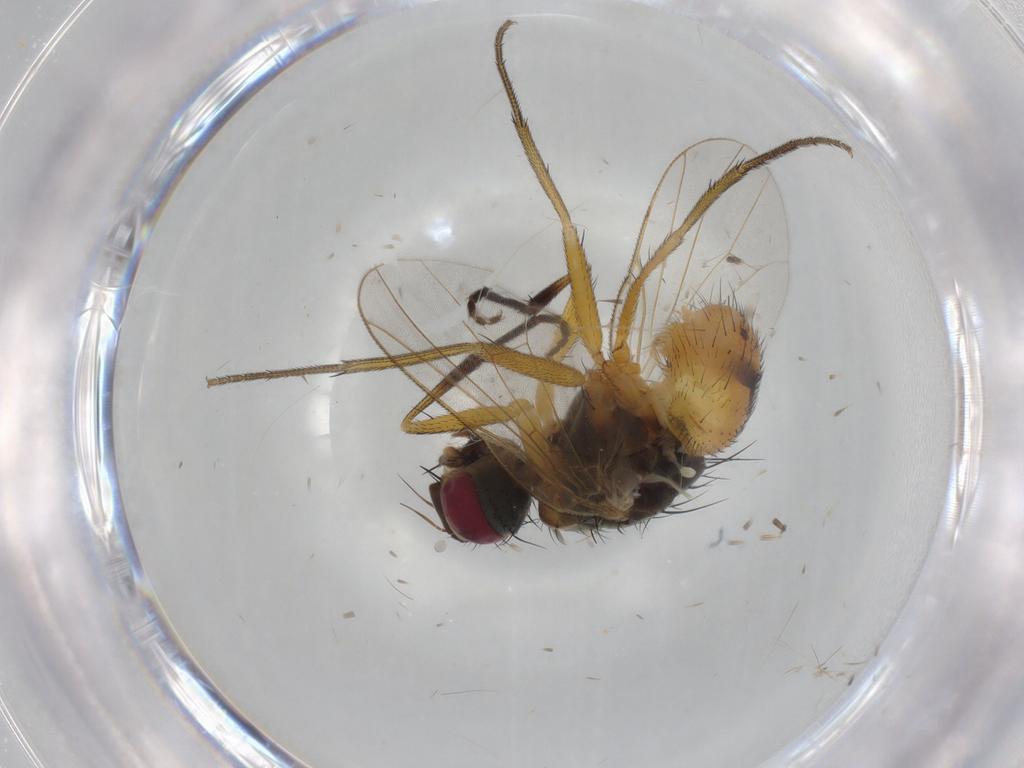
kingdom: Animalia
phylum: Arthropoda
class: Insecta
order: Diptera
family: Muscidae
